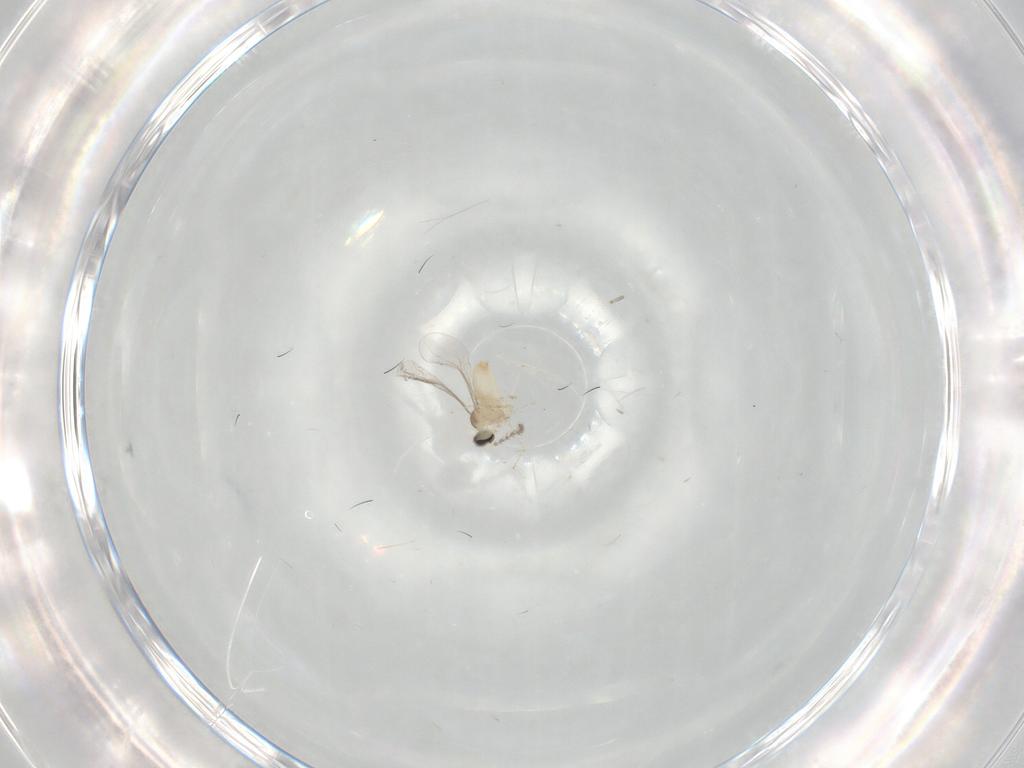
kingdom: Animalia
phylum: Arthropoda
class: Insecta
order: Diptera
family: Cecidomyiidae
